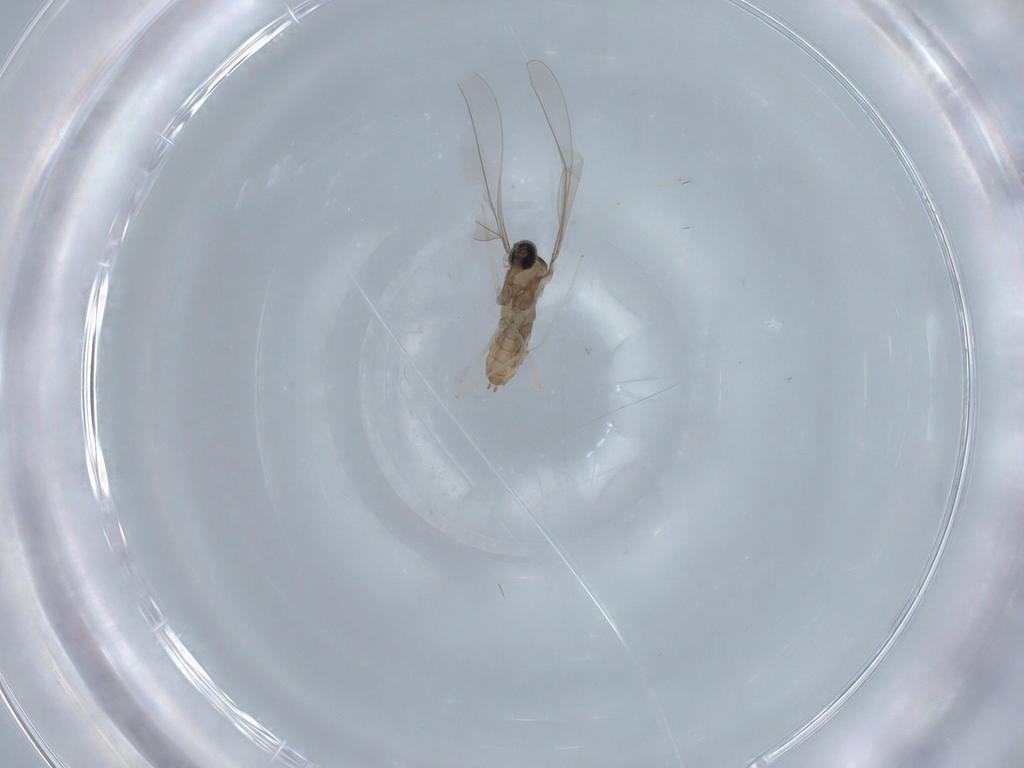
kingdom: Animalia
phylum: Arthropoda
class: Insecta
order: Diptera
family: Cecidomyiidae
